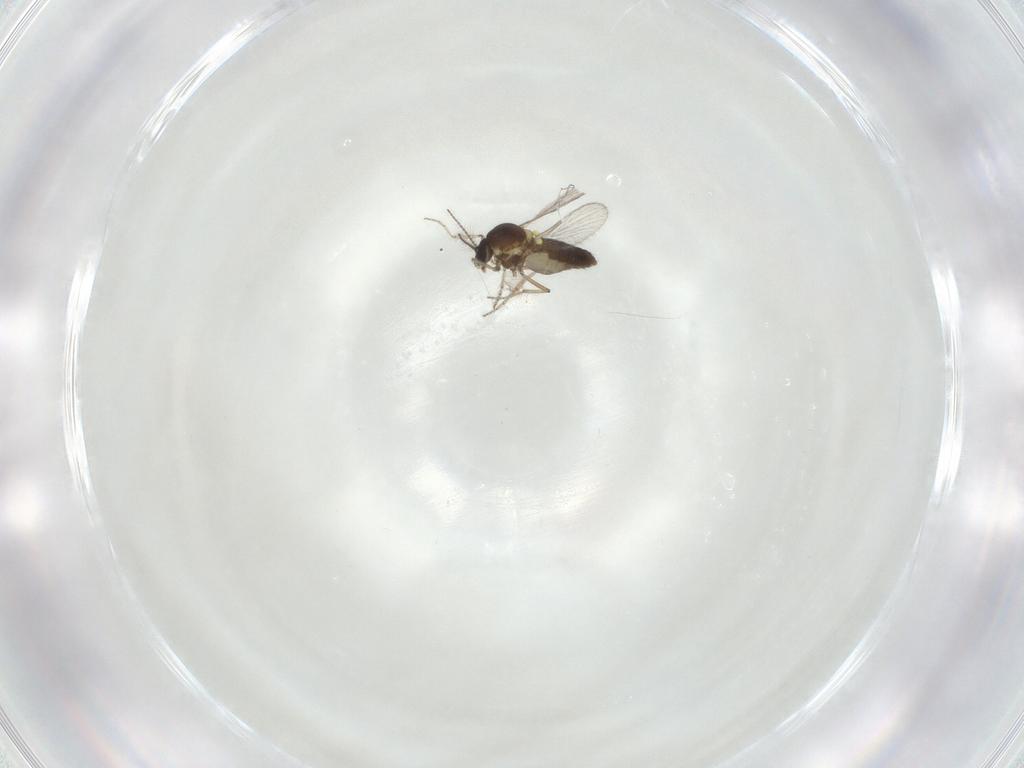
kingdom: Animalia
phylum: Arthropoda
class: Insecta
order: Diptera
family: Ceratopogonidae
